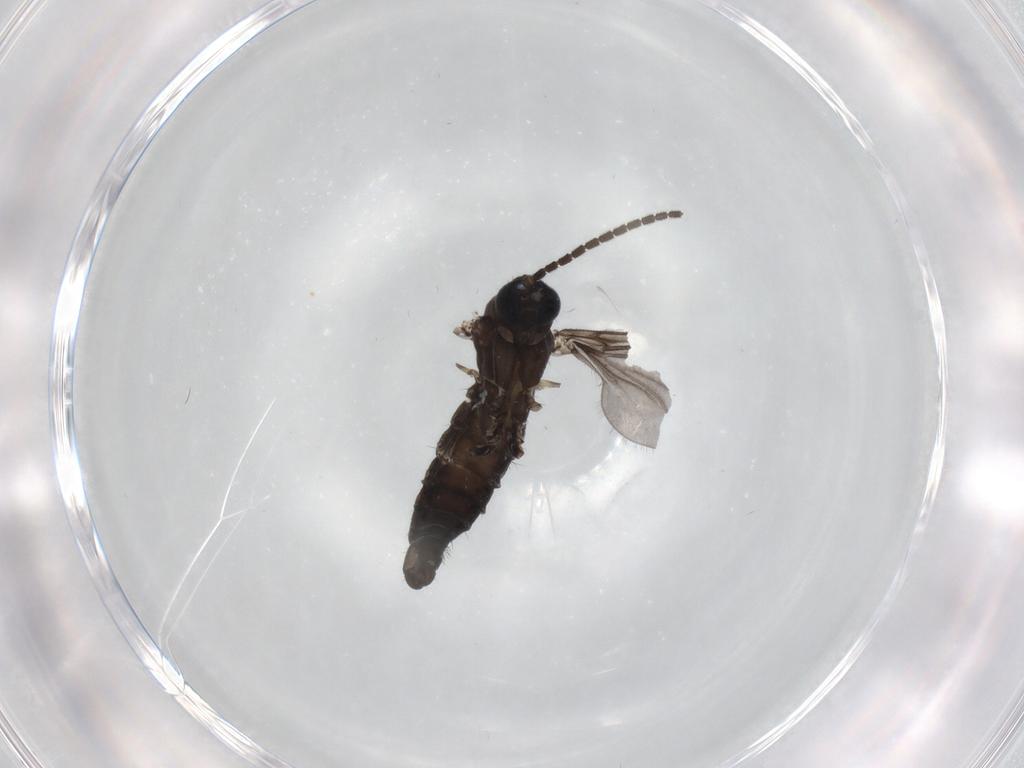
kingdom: Animalia
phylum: Arthropoda
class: Insecta
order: Diptera
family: Sciaridae
